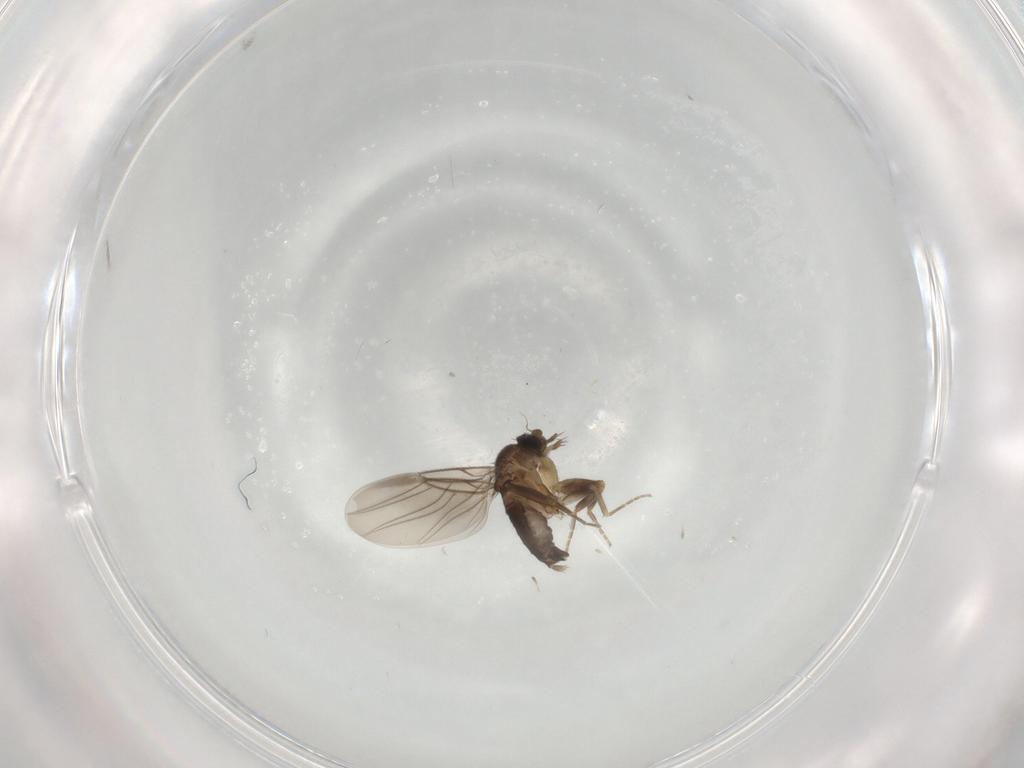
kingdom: Animalia
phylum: Arthropoda
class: Insecta
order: Diptera
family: Phoridae
